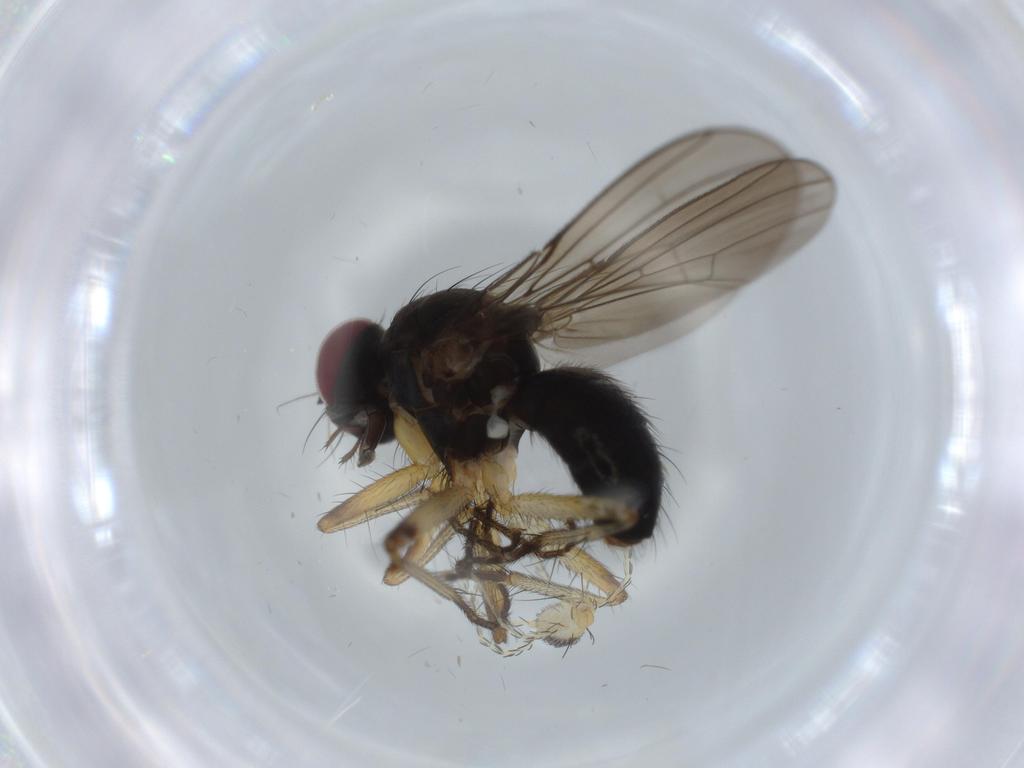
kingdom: Animalia
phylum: Arthropoda
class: Insecta
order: Diptera
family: Muscidae
